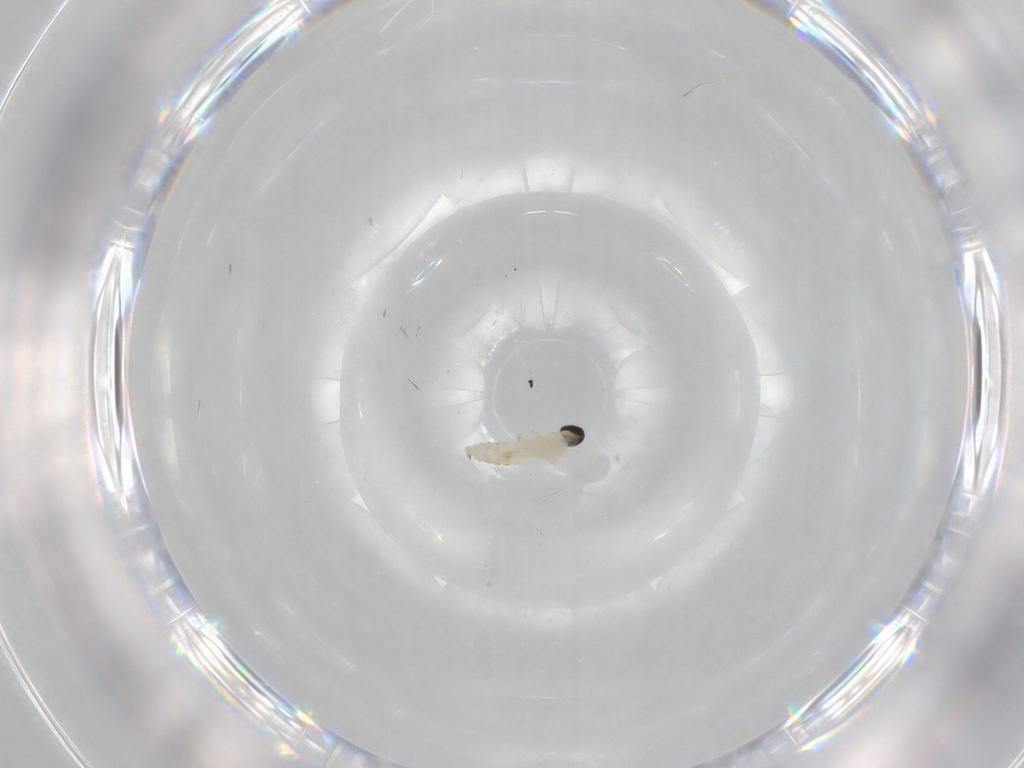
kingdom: Animalia
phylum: Arthropoda
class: Insecta
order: Diptera
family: Cecidomyiidae
